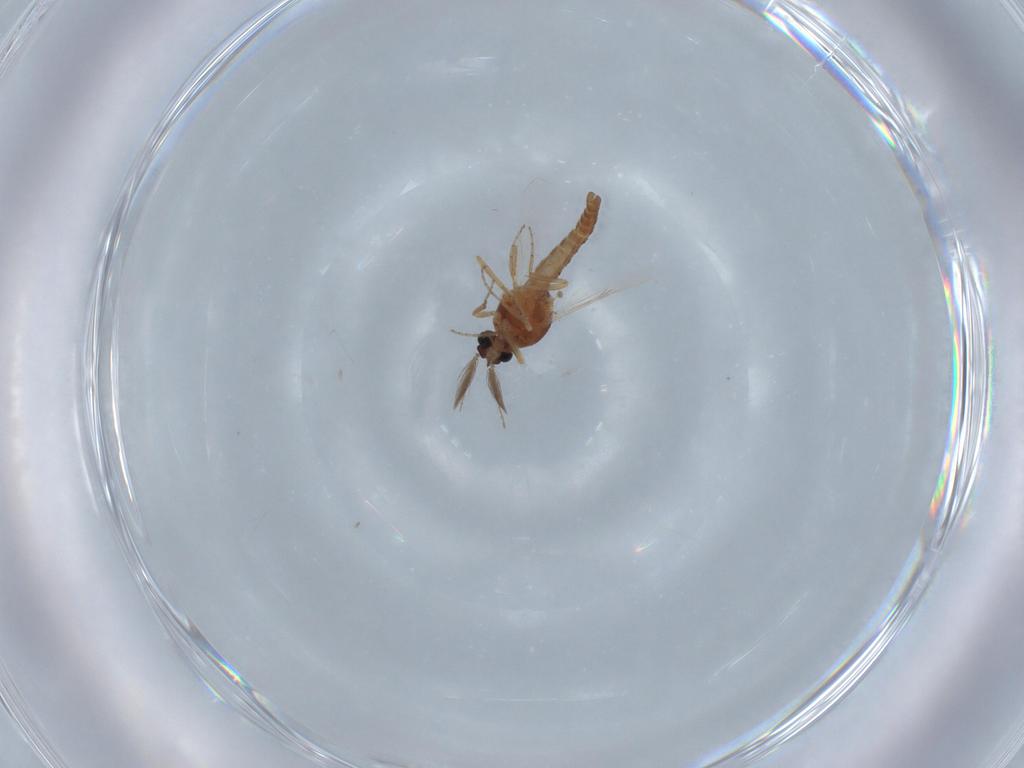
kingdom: Animalia
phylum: Arthropoda
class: Insecta
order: Diptera
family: Ceratopogonidae
